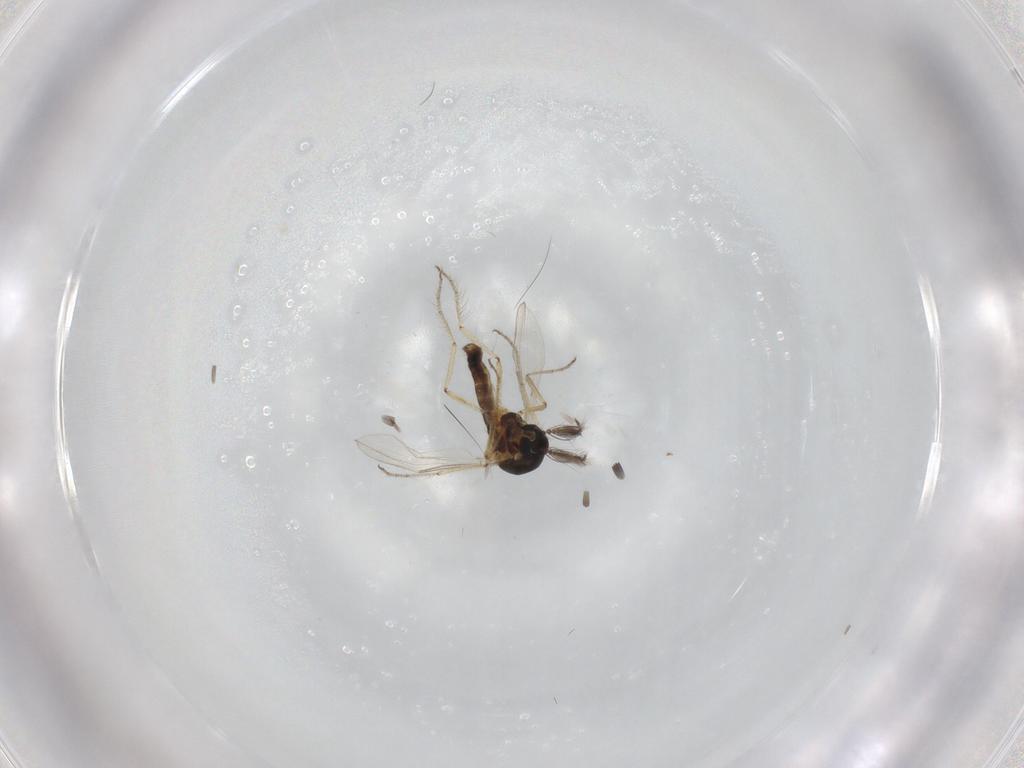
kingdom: Animalia
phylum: Arthropoda
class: Insecta
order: Diptera
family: Ceratopogonidae
